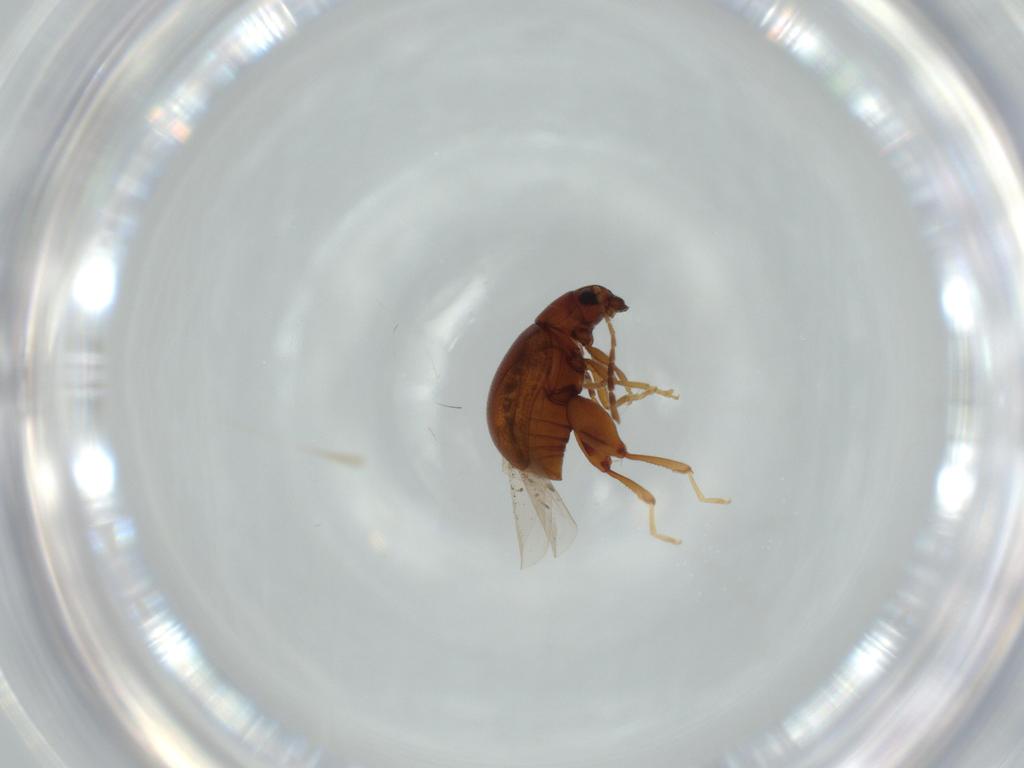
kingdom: Animalia
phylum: Arthropoda
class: Insecta
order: Coleoptera
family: Chrysomelidae
